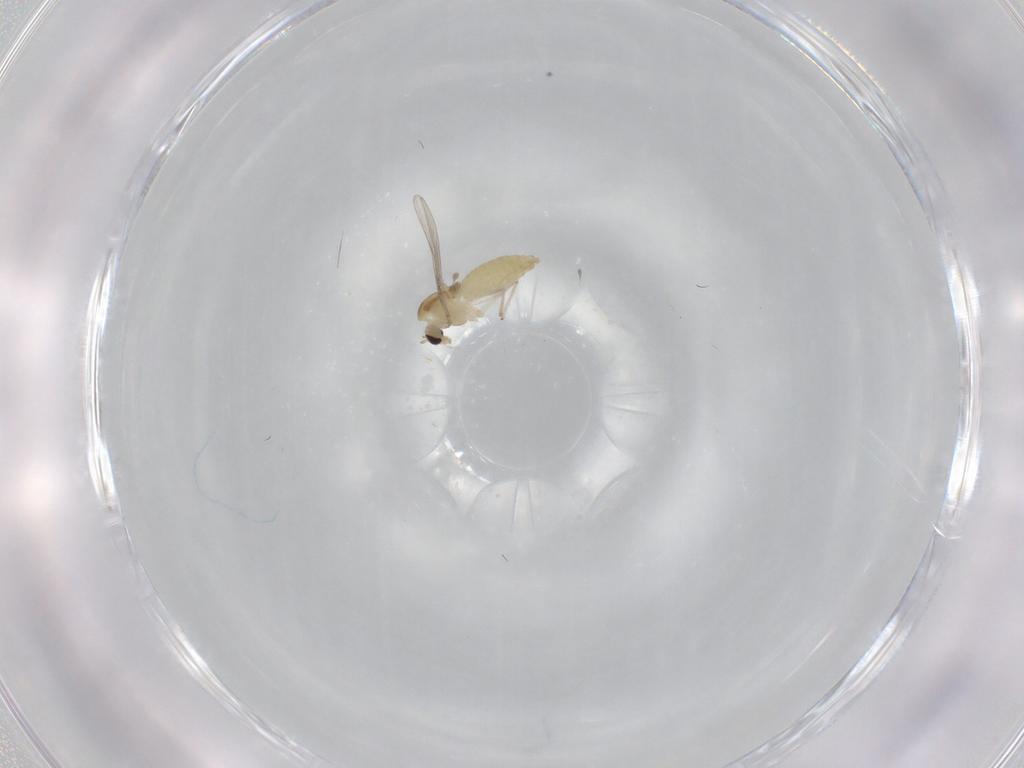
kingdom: Animalia
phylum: Arthropoda
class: Insecta
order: Diptera
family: Chironomidae
